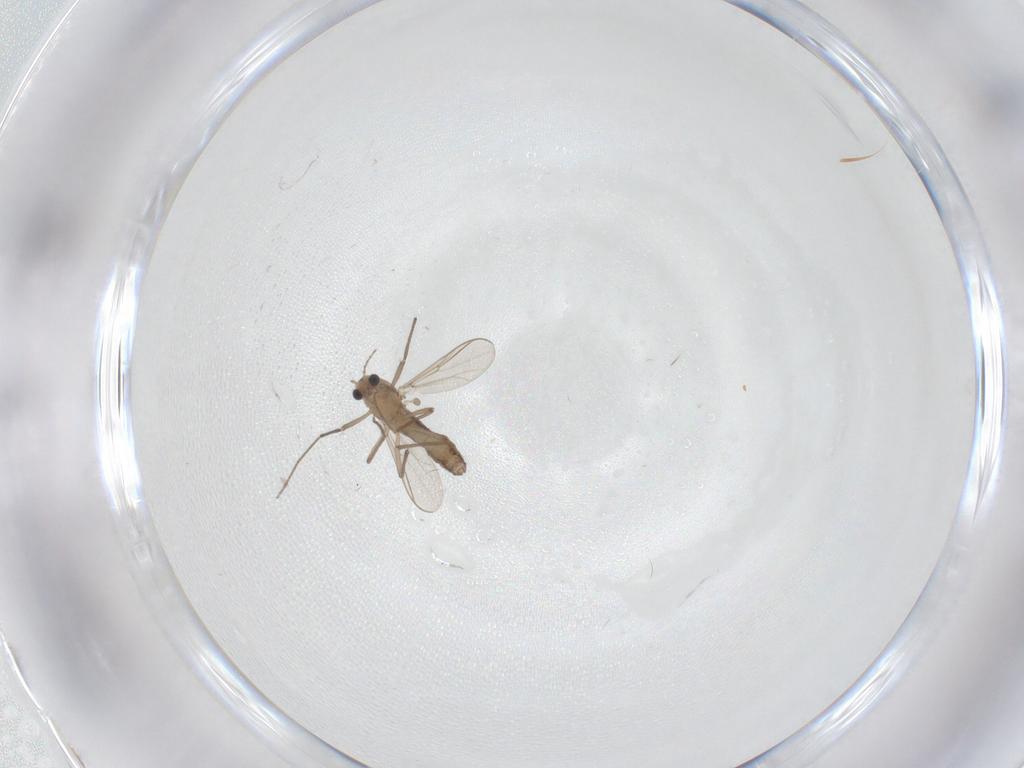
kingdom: Animalia
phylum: Arthropoda
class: Insecta
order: Diptera
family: Chironomidae
